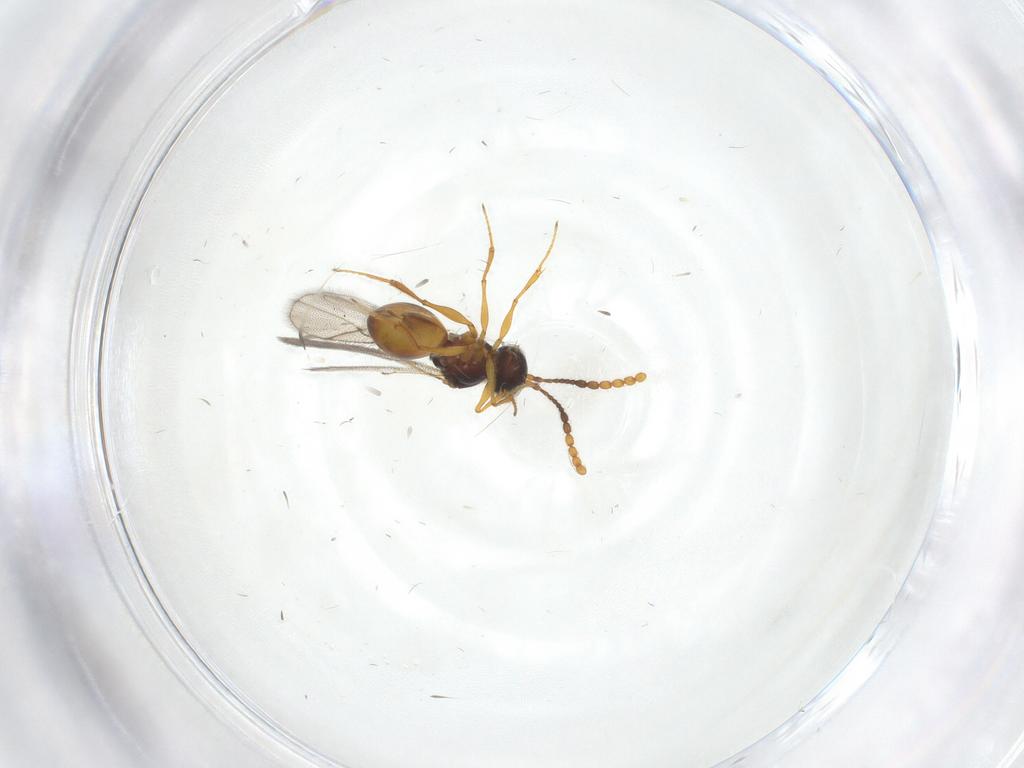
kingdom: Animalia
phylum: Arthropoda
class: Insecta
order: Hymenoptera
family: Figitidae
